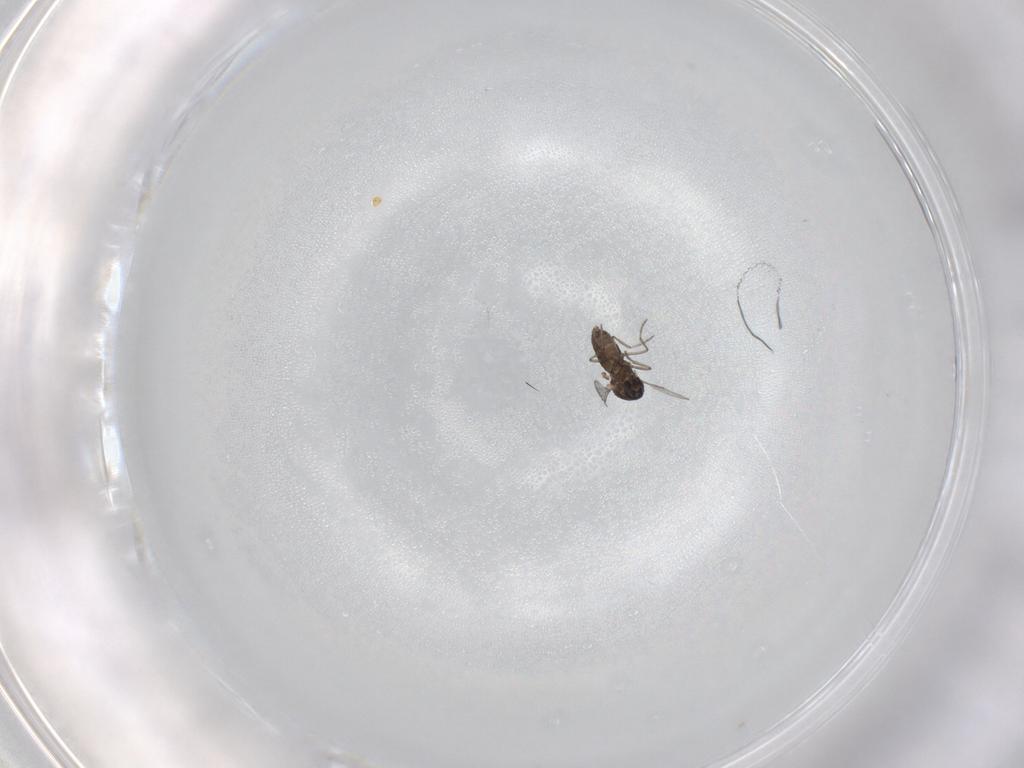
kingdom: Animalia
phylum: Arthropoda
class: Insecta
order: Diptera
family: Ceratopogonidae
